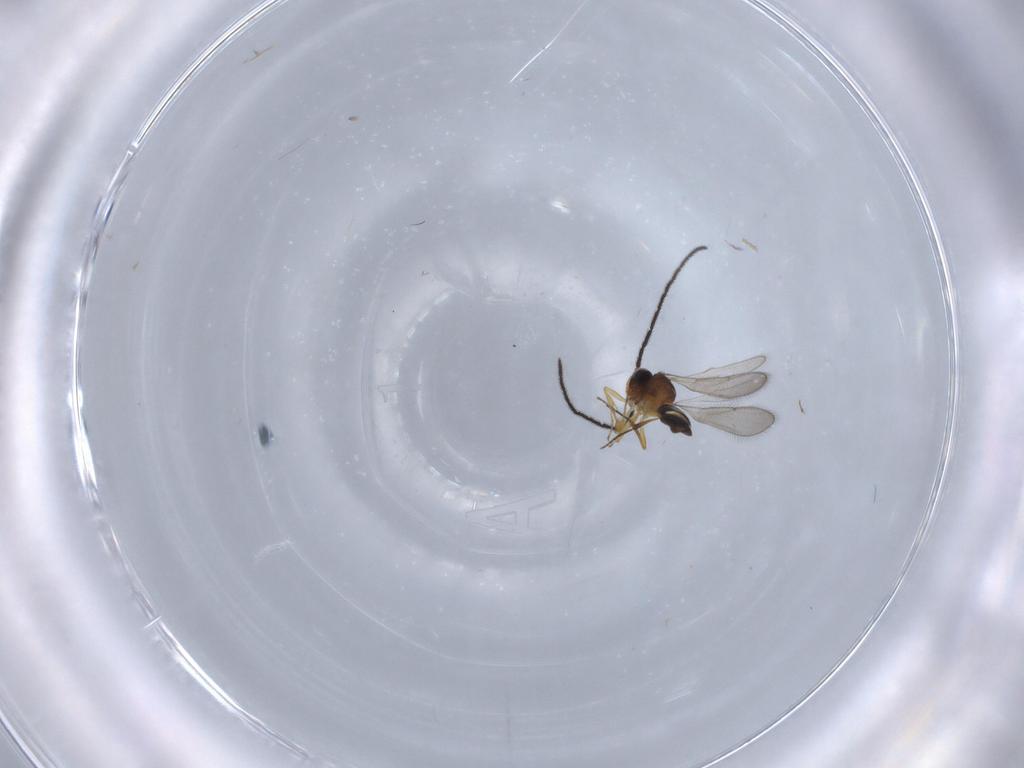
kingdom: Animalia
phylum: Arthropoda
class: Insecta
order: Hymenoptera
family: Scelionidae
